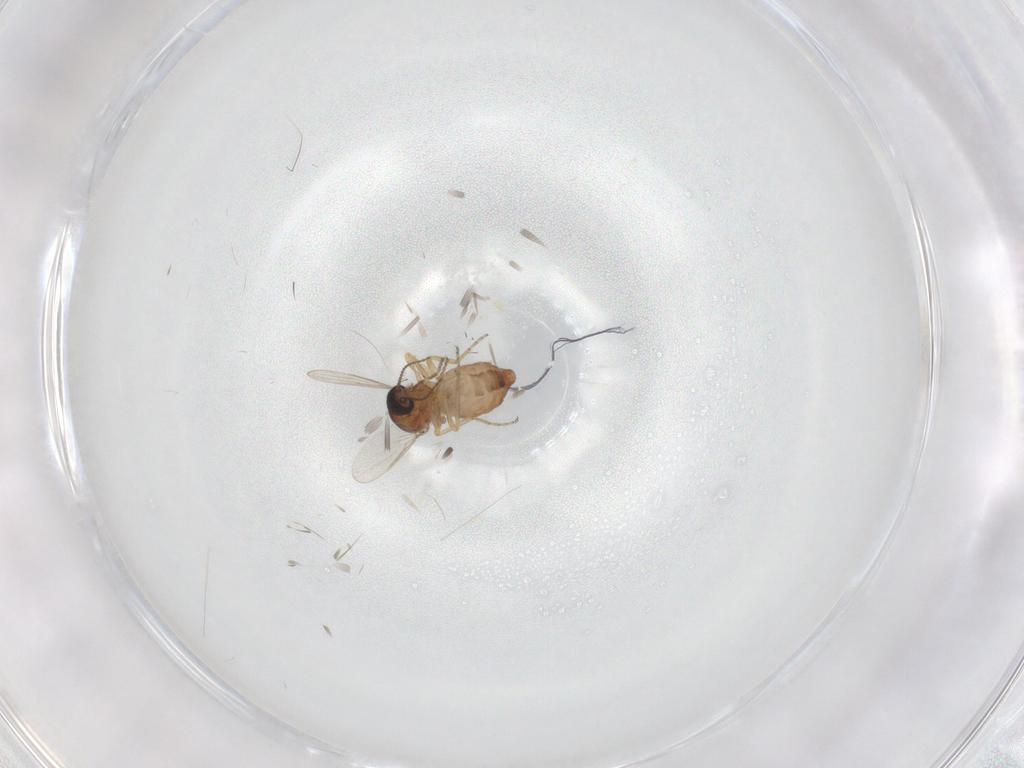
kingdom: Animalia
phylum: Arthropoda
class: Insecta
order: Diptera
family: Ceratopogonidae
